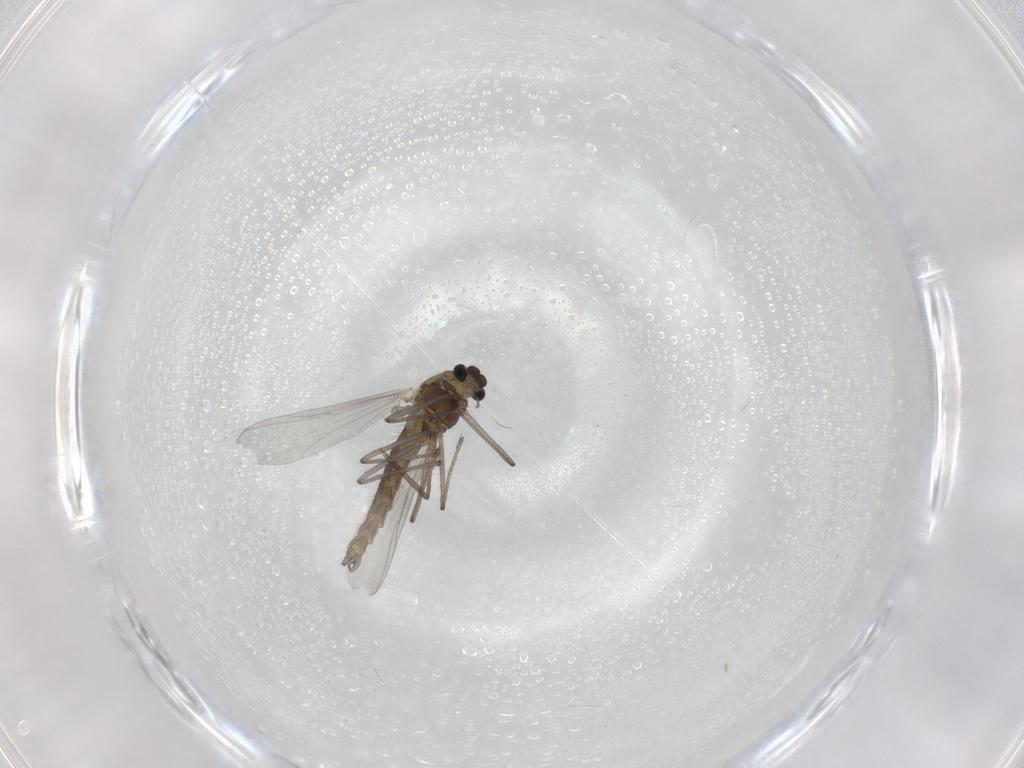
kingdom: Animalia
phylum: Arthropoda
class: Insecta
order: Diptera
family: Chironomidae
